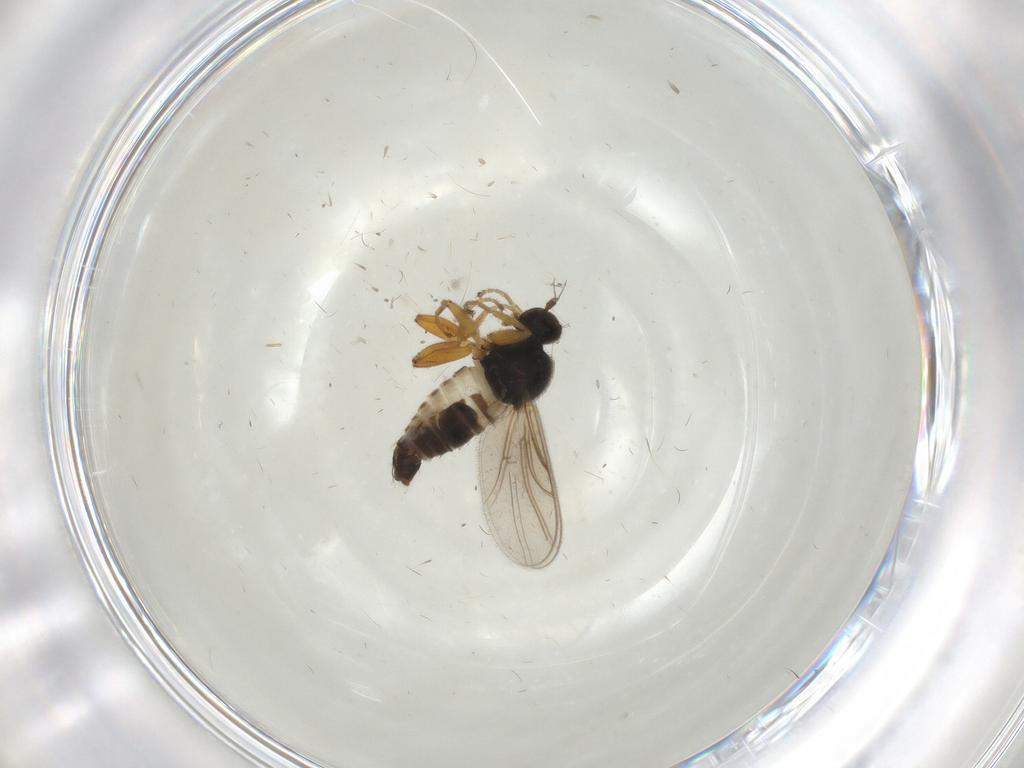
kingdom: Animalia
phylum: Arthropoda
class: Insecta
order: Diptera
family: Hybotidae
